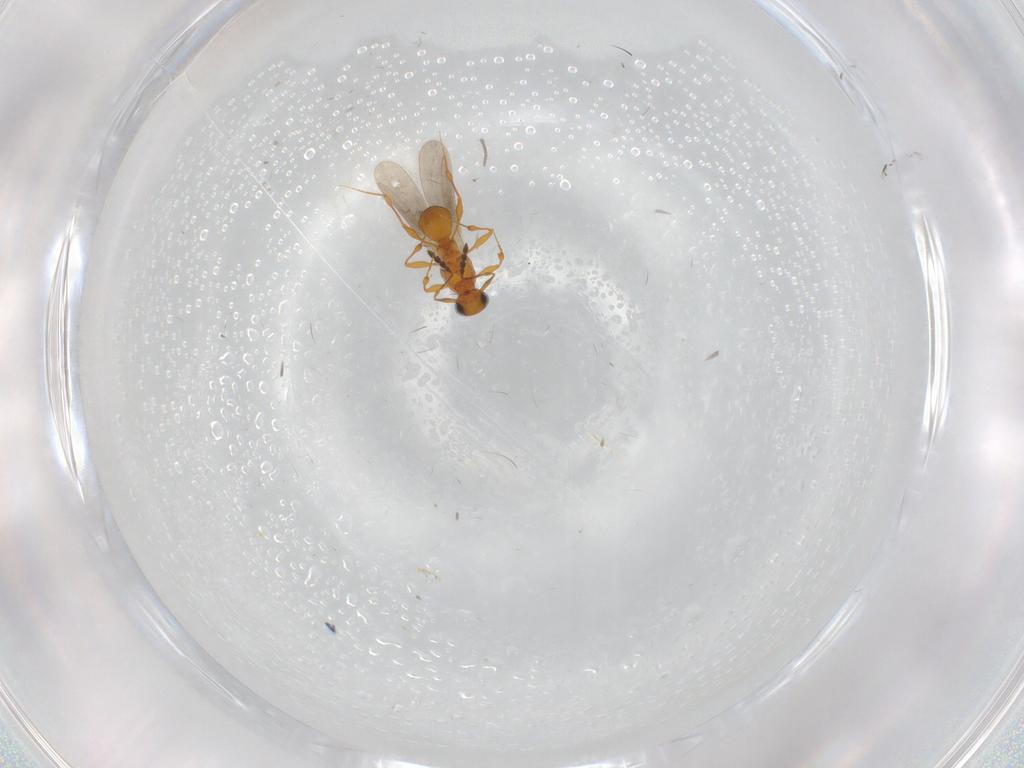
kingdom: Animalia
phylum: Arthropoda
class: Insecta
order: Hymenoptera
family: Platygastridae
